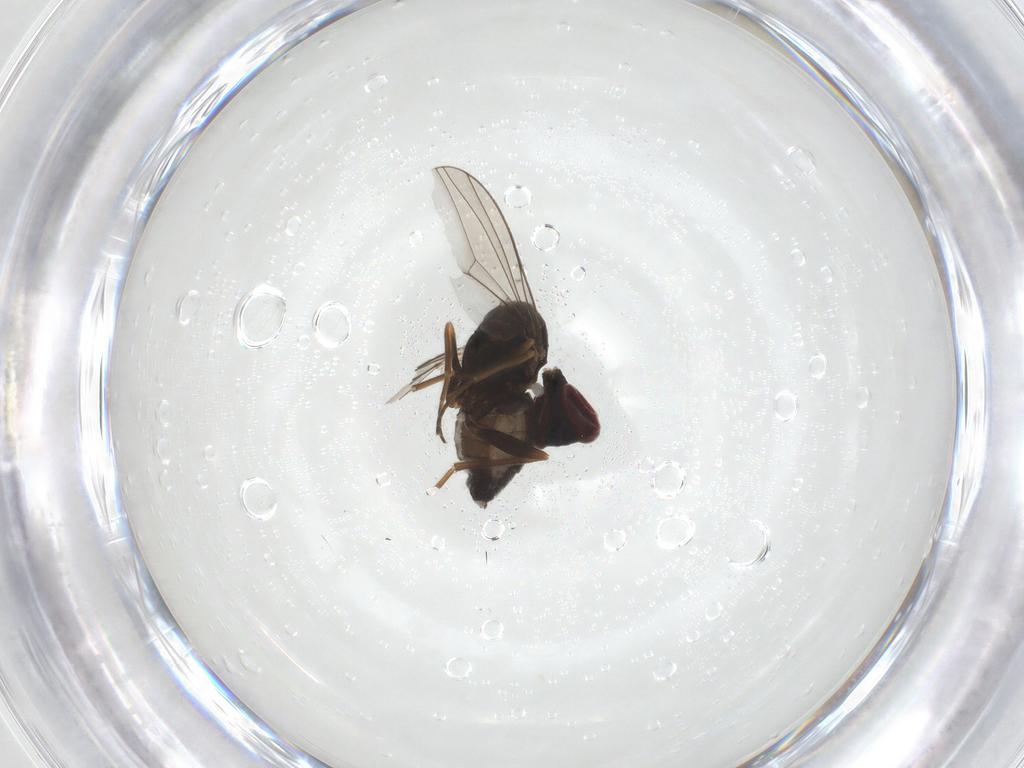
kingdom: Animalia
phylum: Arthropoda
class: Insecta
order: Diptera
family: Dolichopodidae
